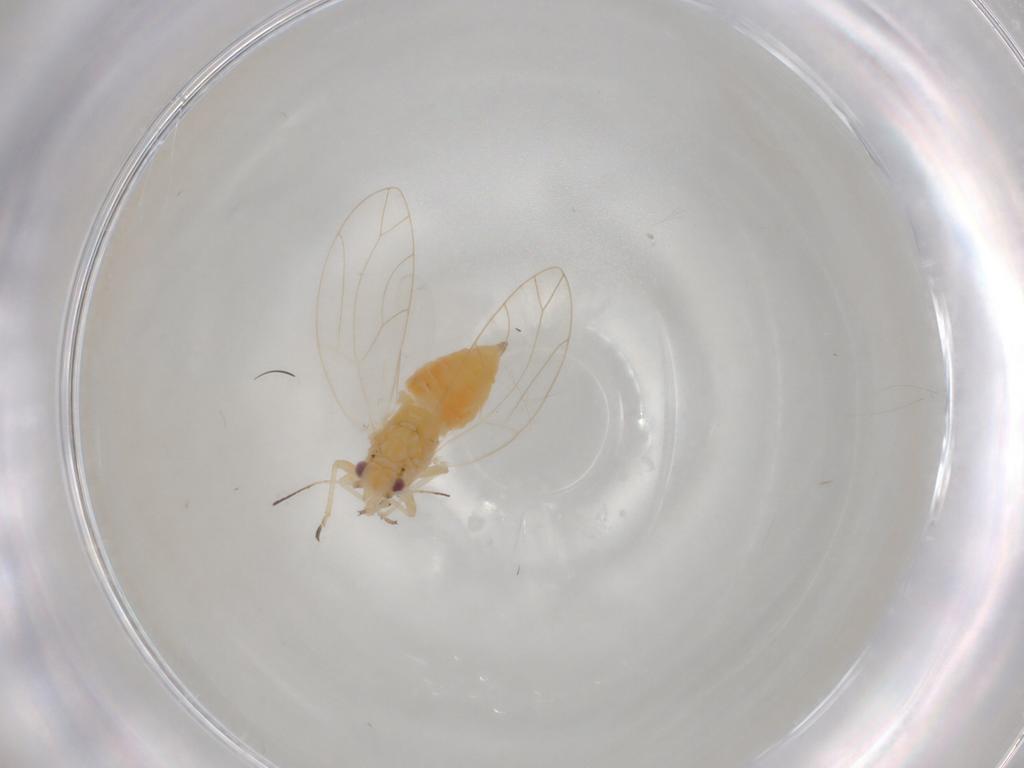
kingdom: Animalia
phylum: Arthropoda
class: Insecta
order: Hemiptera
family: Triozidae
